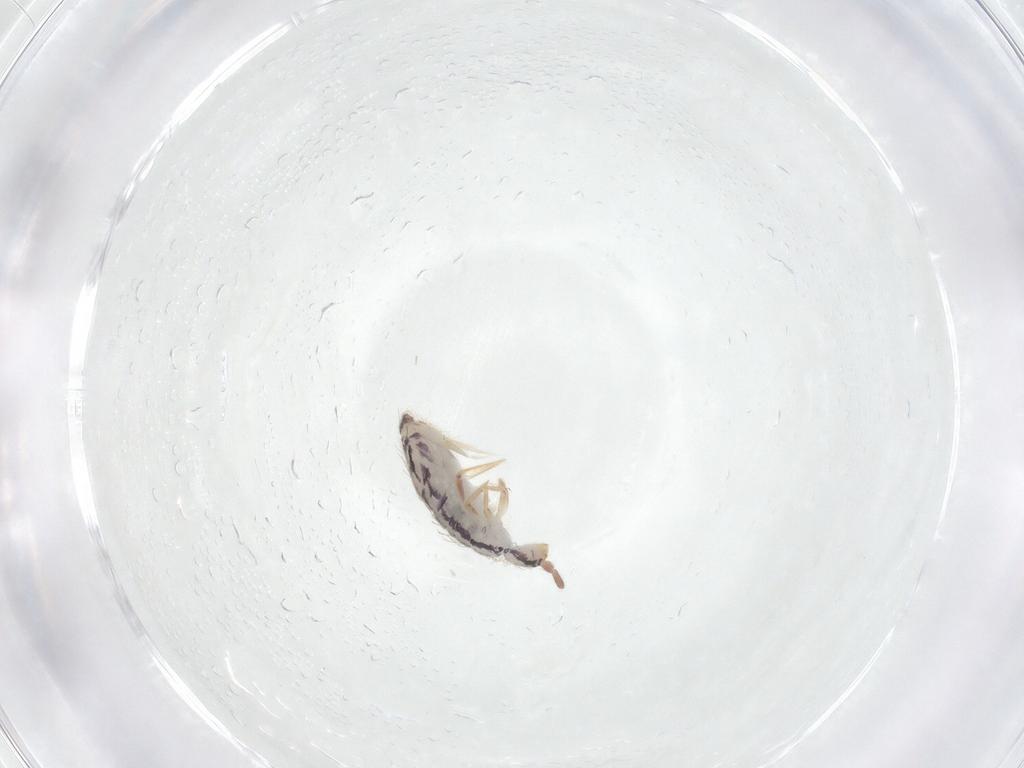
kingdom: Animalia
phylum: Arthropoda
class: Collembola
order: Entomobryomorpha
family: Entomobryidae
